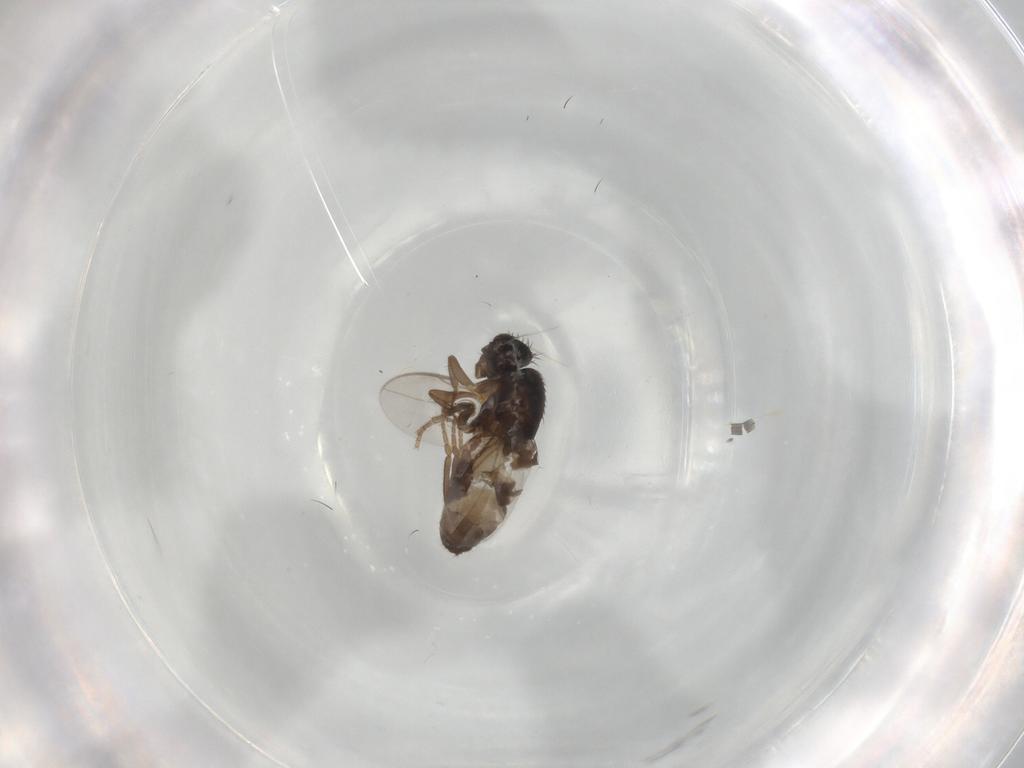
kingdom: Animalia
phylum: Arthropoda
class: Insecta
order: Diptera
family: Sphaeroceridae
